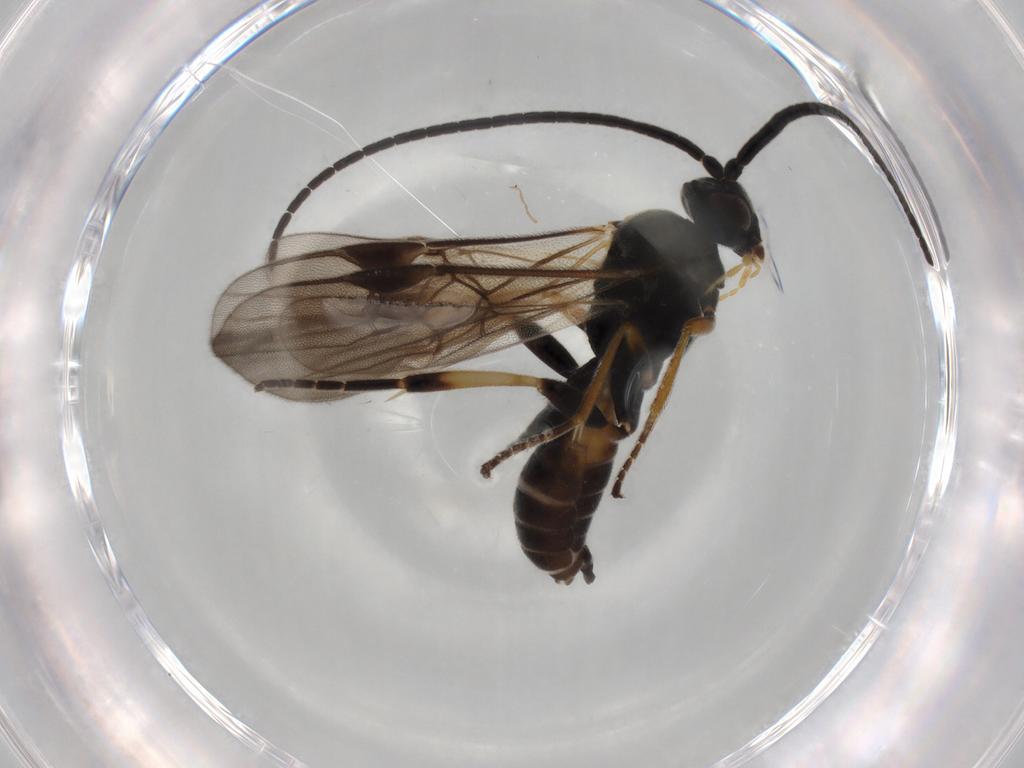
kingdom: Animalia
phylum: Arthropoda
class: Insecta
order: Hymenoptera
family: Braconidae
